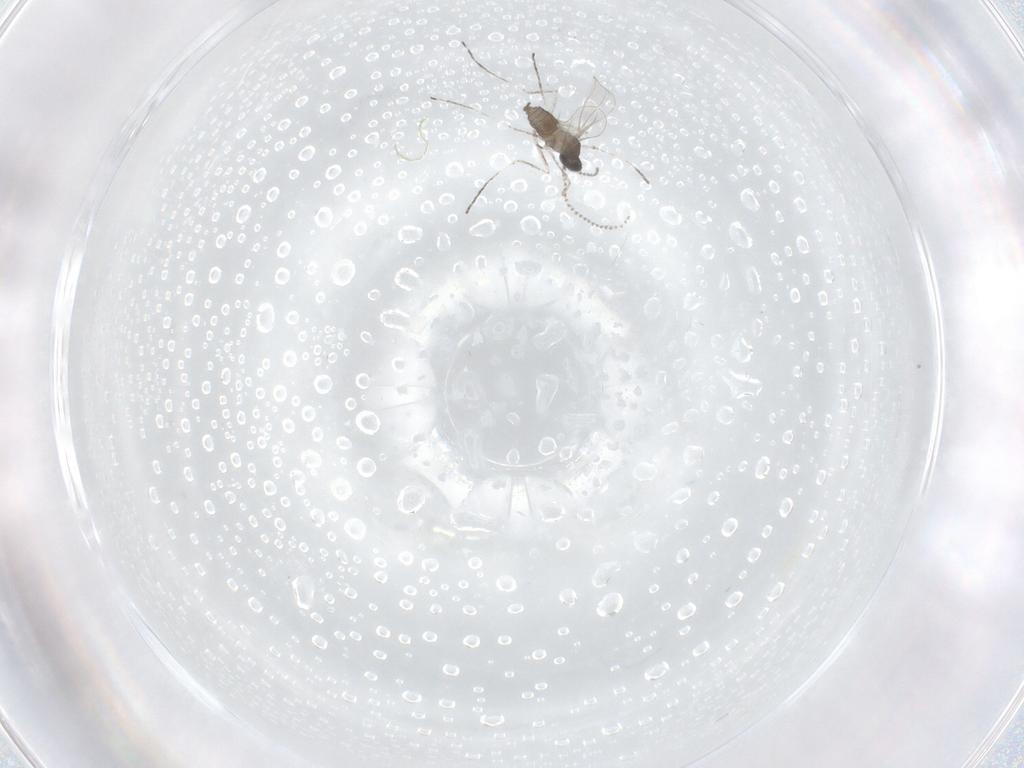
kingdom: Animalia
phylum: Arthropoda
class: Insecta
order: Diptera
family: Cecidomyiidae
